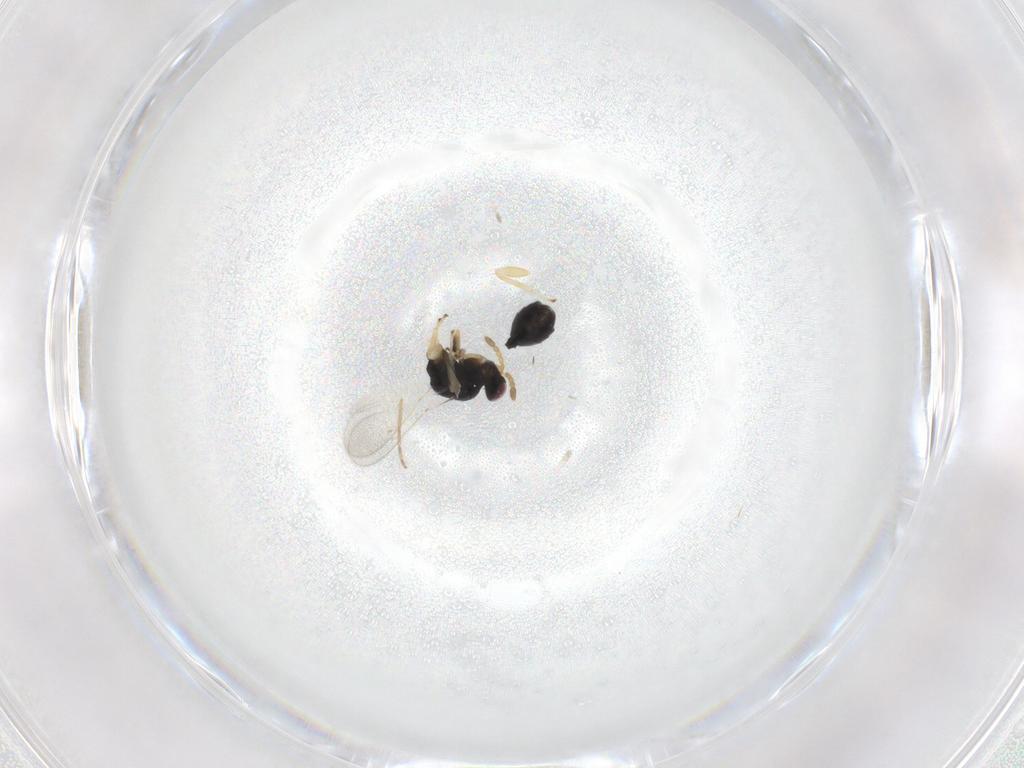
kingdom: Animalia
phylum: Arthropoda
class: Insecta
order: Hymenoptera
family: Eulophidae
